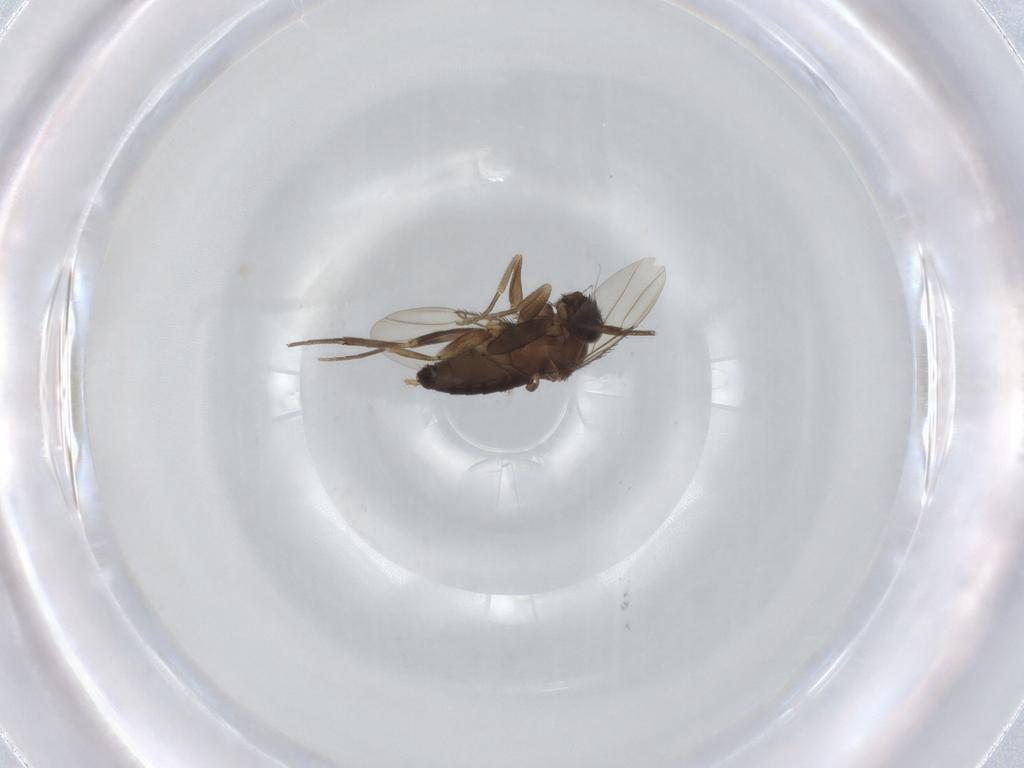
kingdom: Animalia
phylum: Arthropoda
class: Insecta
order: Diptera
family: Phoridae
